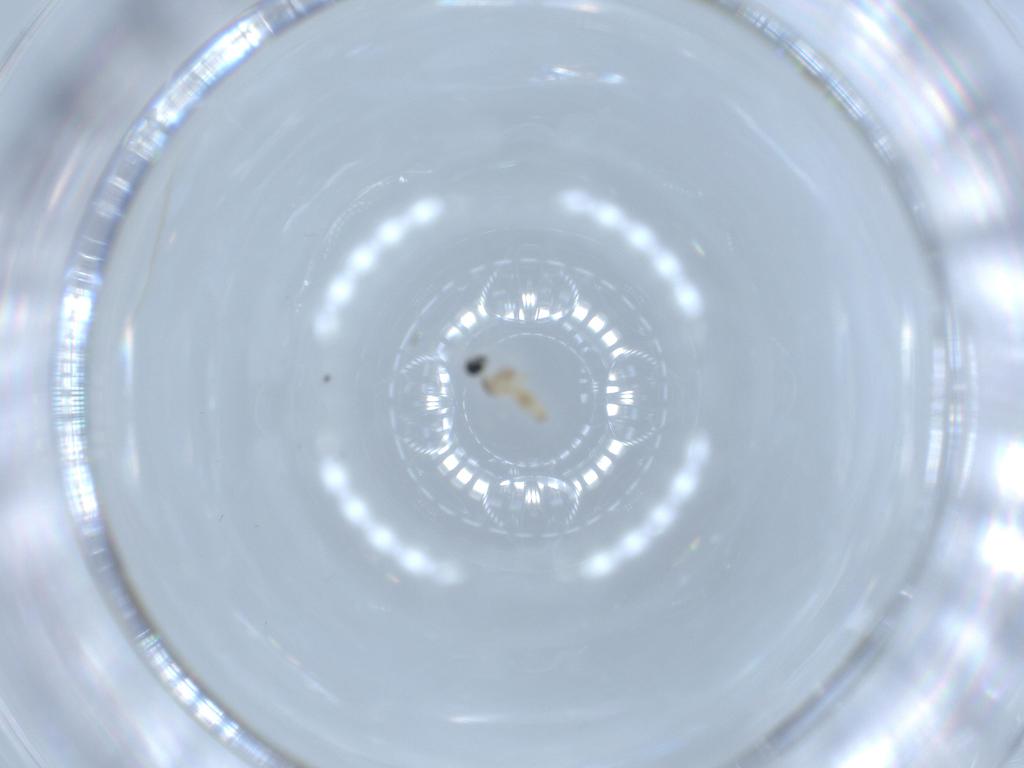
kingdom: Animalia
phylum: Arthropoda
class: Insecta
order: Diptera
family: Cecidomyiidae
